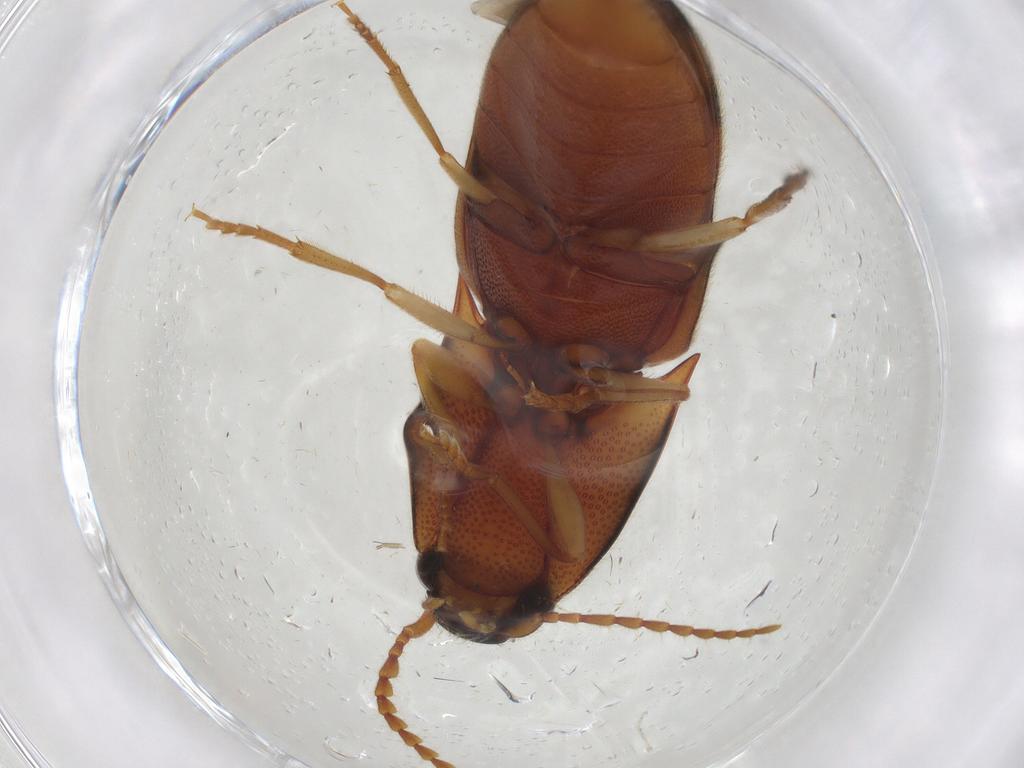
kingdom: Animalia
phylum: Arthropoda
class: Insecta
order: Coleoptera
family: Elateridae
